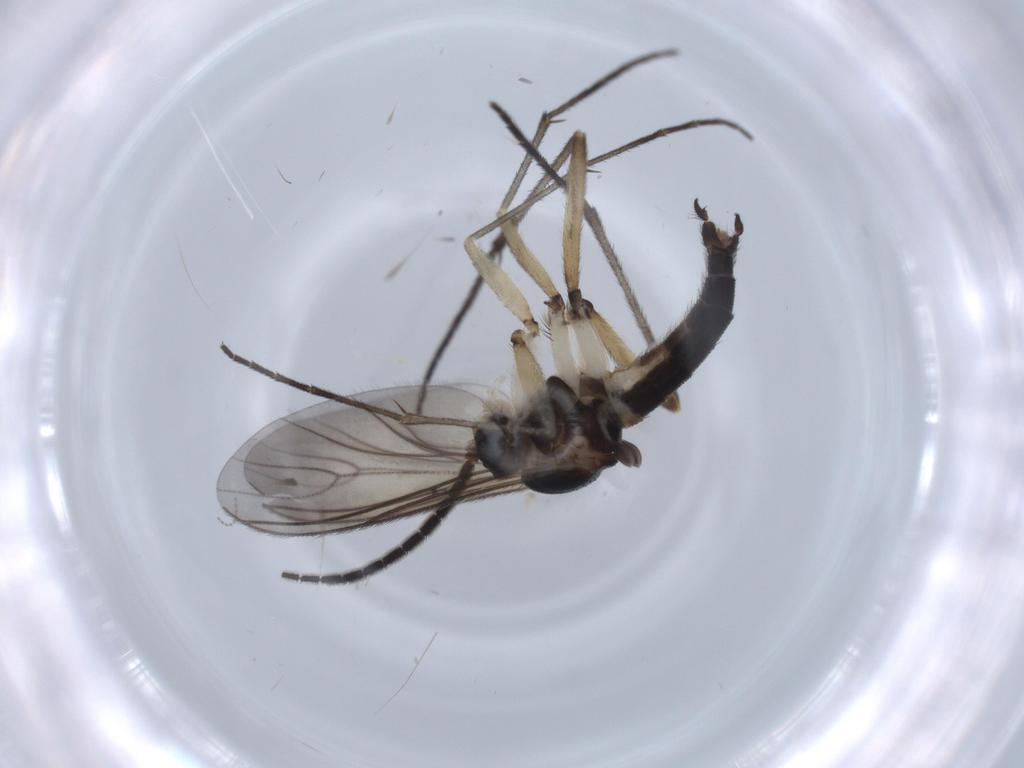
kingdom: Animalia
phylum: Arthropoda
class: Insecta
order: Diptera
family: Sciaridae
